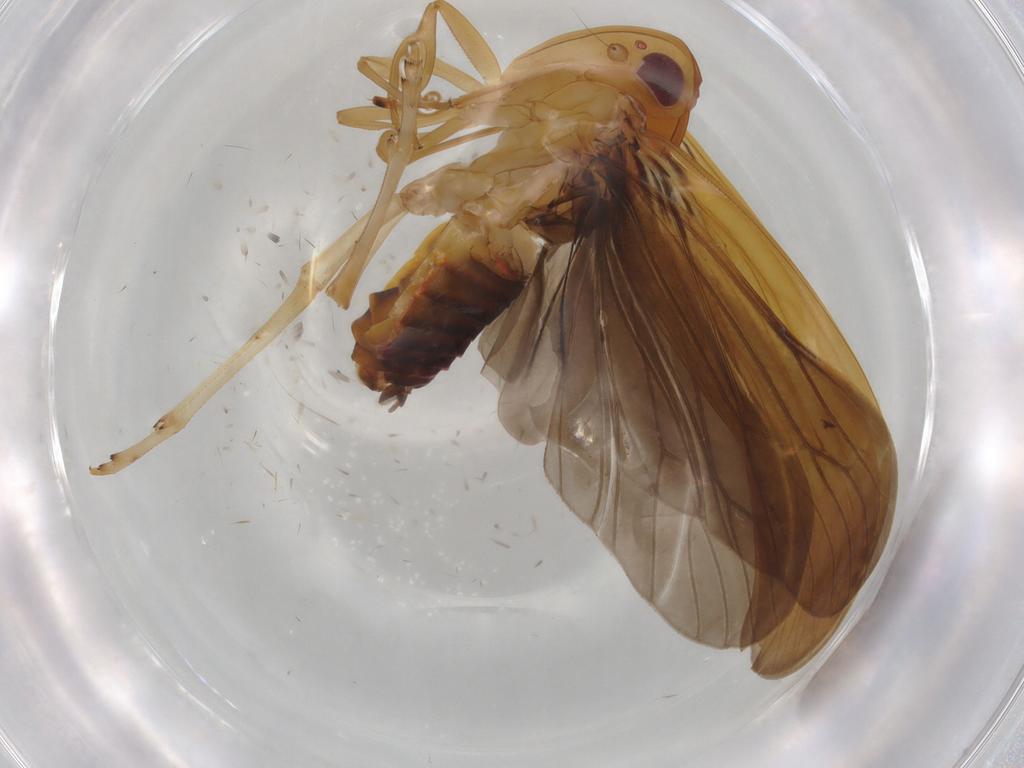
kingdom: Animalia
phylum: Arthropoda
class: Insecta
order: Hemiptera
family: Achilidae
